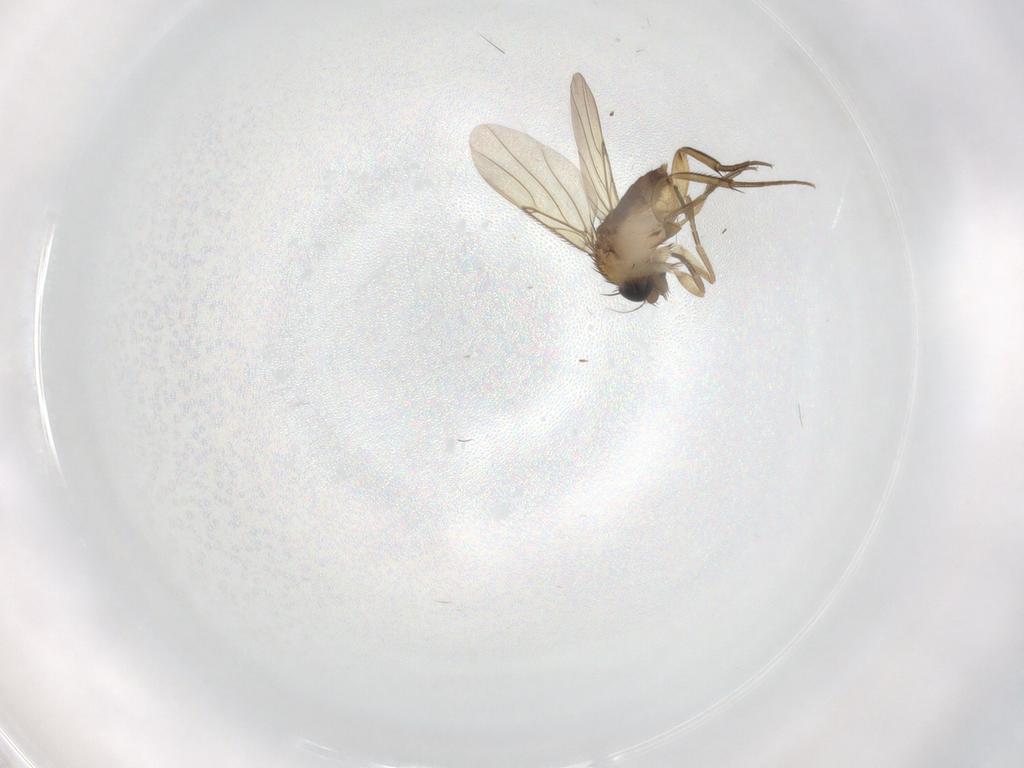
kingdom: Animalia
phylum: Arthropoda
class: Insecta
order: Diptera
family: Phoridae
